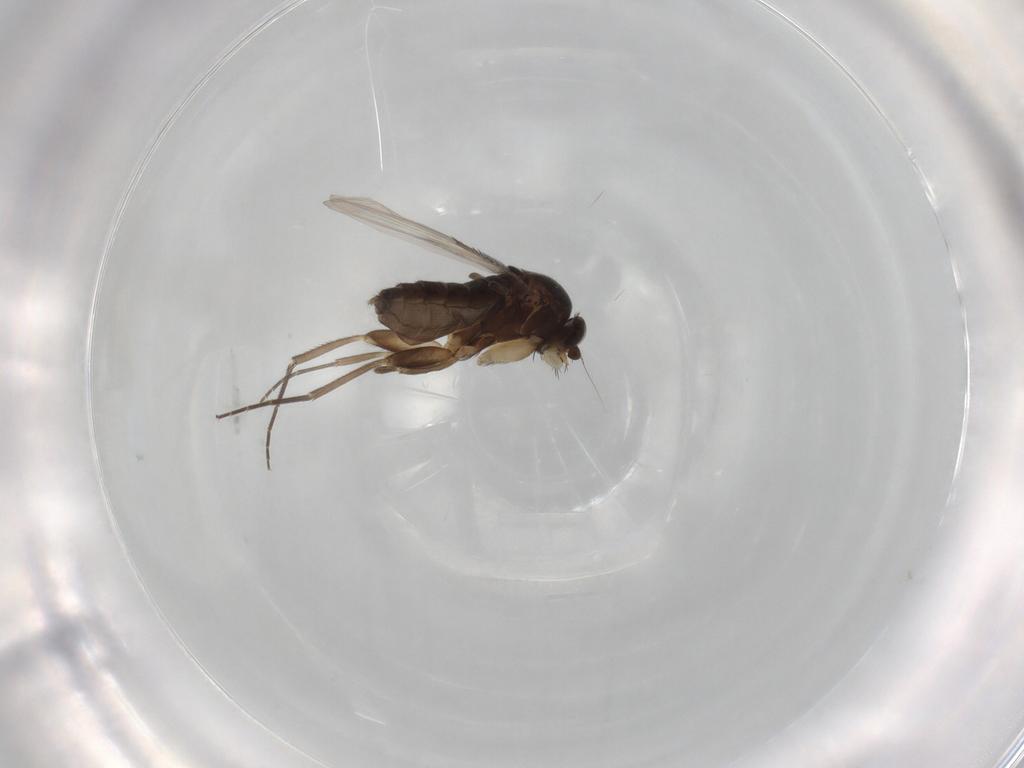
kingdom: Animalia
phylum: Arthropoda
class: Insecta
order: Diptera
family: Phoridae
